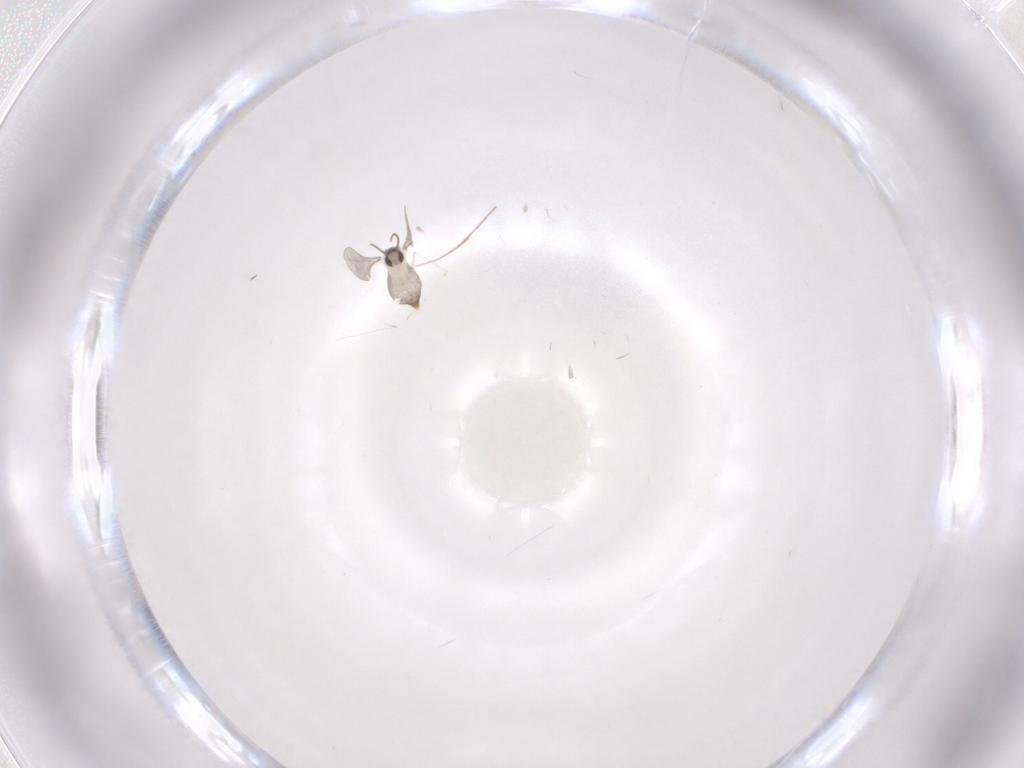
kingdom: Animalia
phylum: Arthropoda
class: Insecta
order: Diptera
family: Cecidomyiidae
